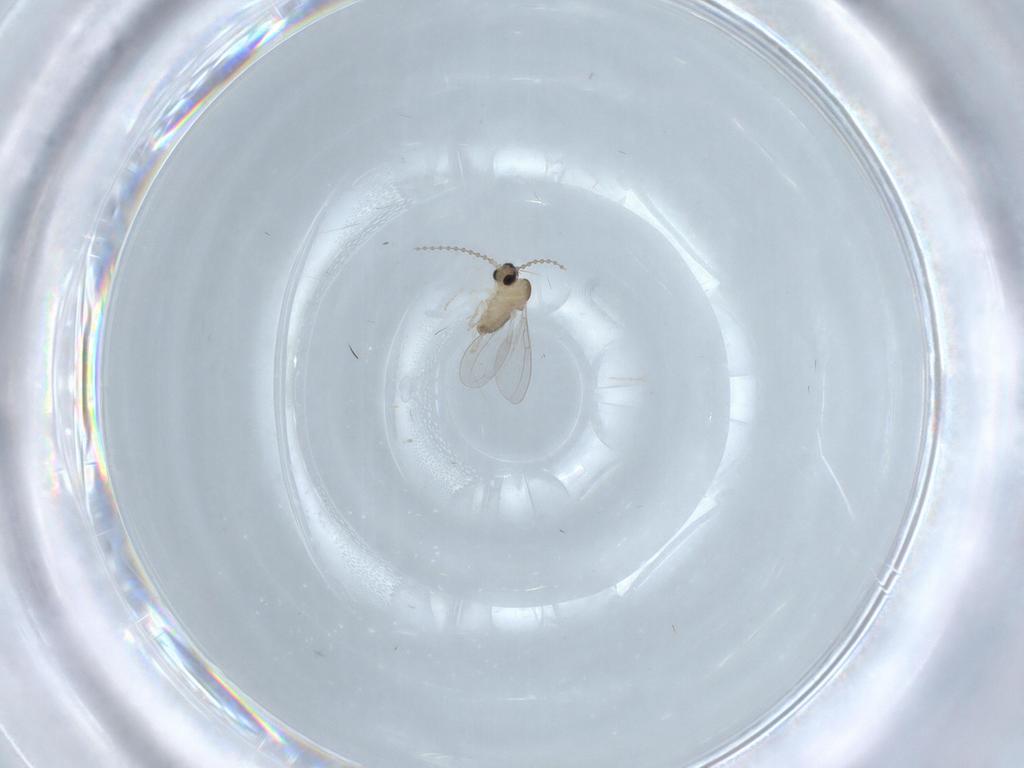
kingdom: Animalia
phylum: Arthropoda
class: Insecta
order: Diptera
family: Cecidomyiidae
